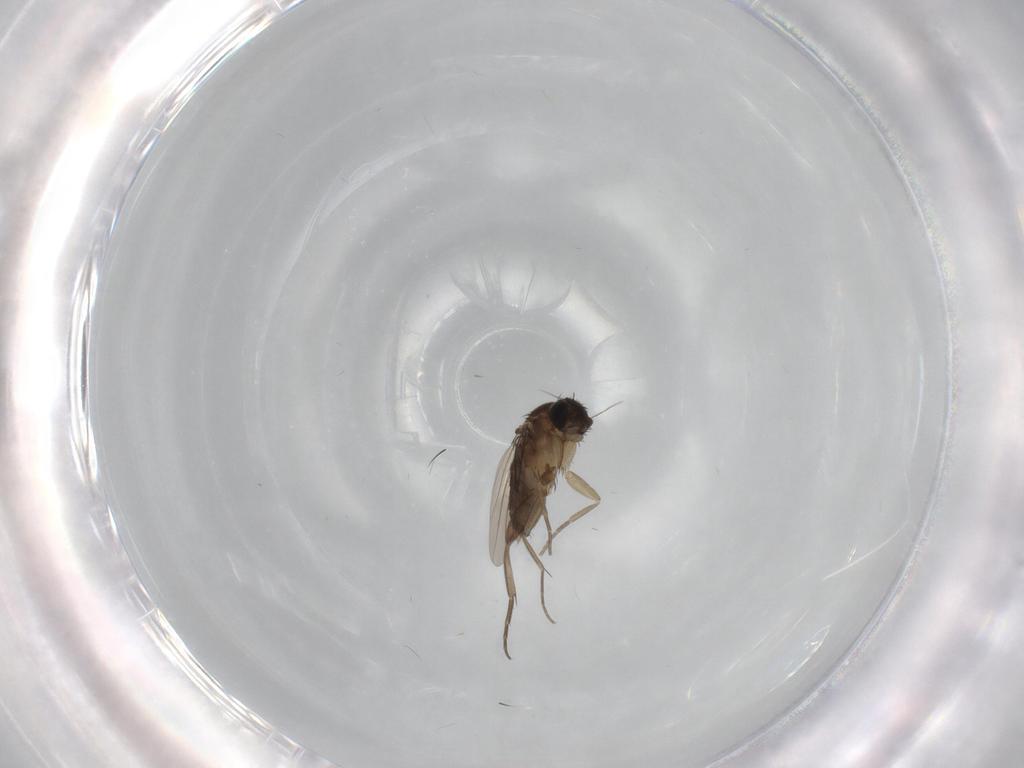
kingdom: Animalia
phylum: Arthropoda
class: Insecta
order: Diptera
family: Phoridae
